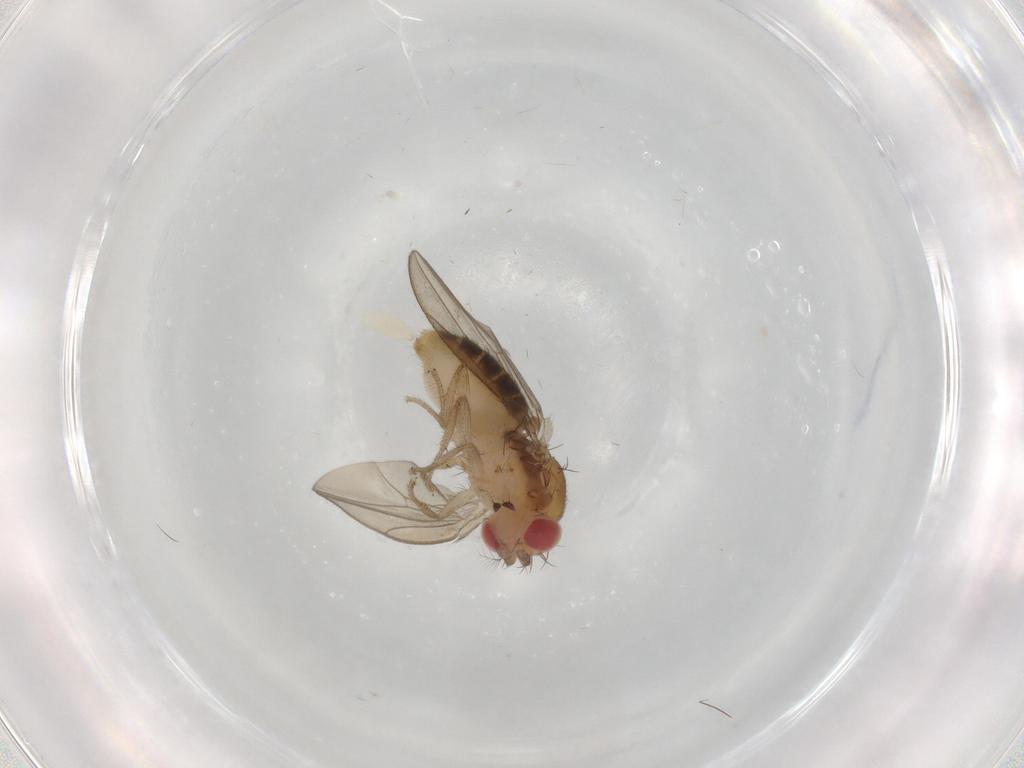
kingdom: Animalia
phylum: Arthropoda
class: Insecta
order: Diptera
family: Drosophilidae
